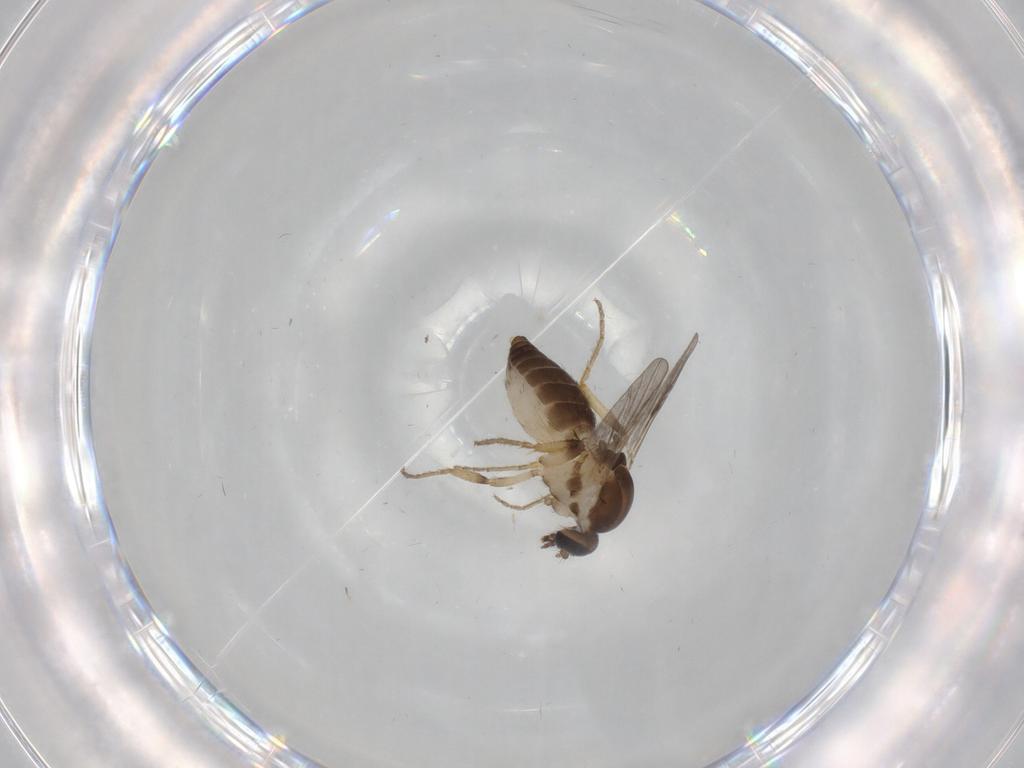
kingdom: Animalia
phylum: Arthropoda
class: Insecta
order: Diptera
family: Ceratopogonidae
